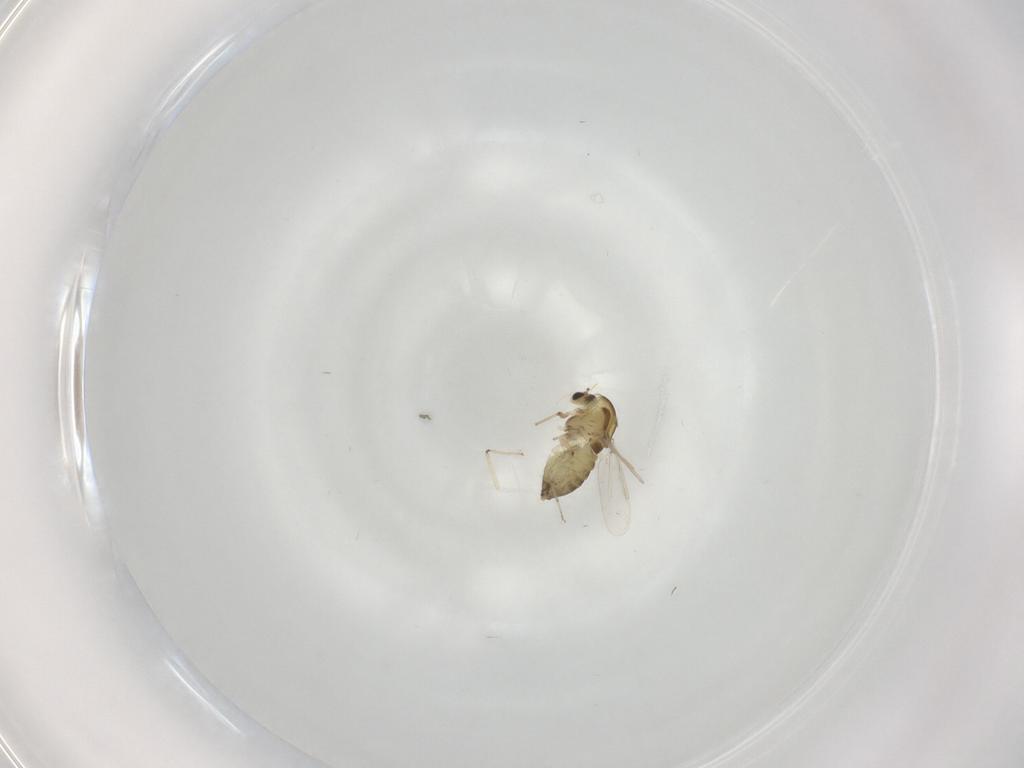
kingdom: Animalia
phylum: Arthropoda
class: Insecta
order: Diptera
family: Chironomidae
